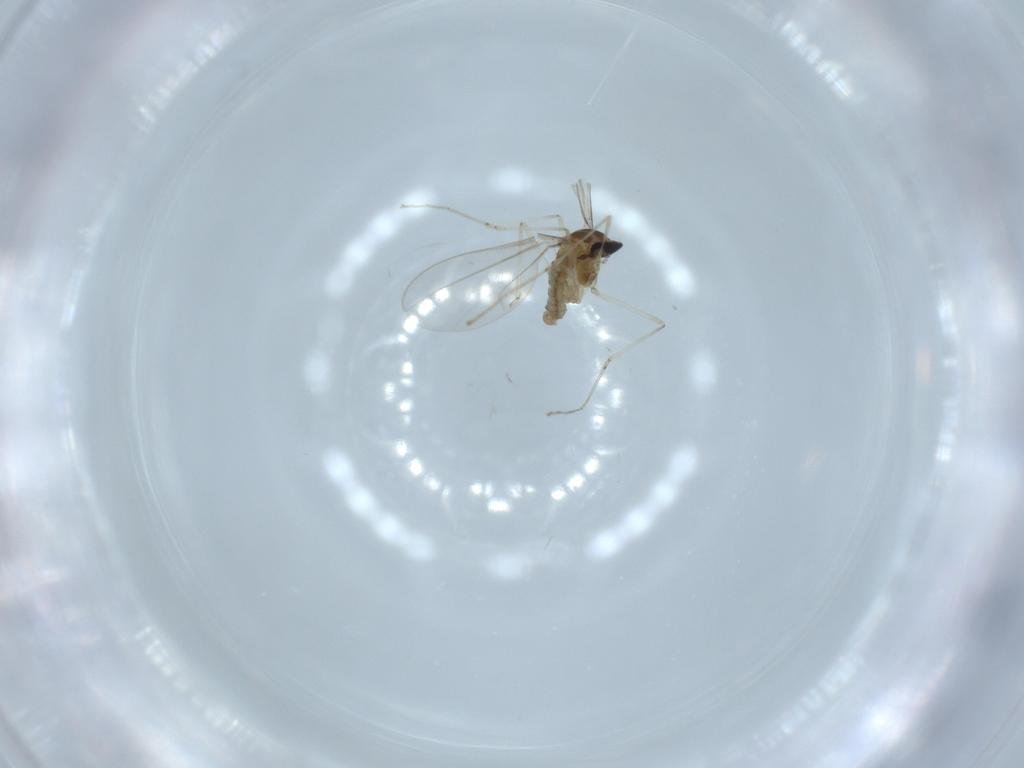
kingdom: Animalia
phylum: Arthropoda
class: Insecta
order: Diptera
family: Cecidomyiidae
